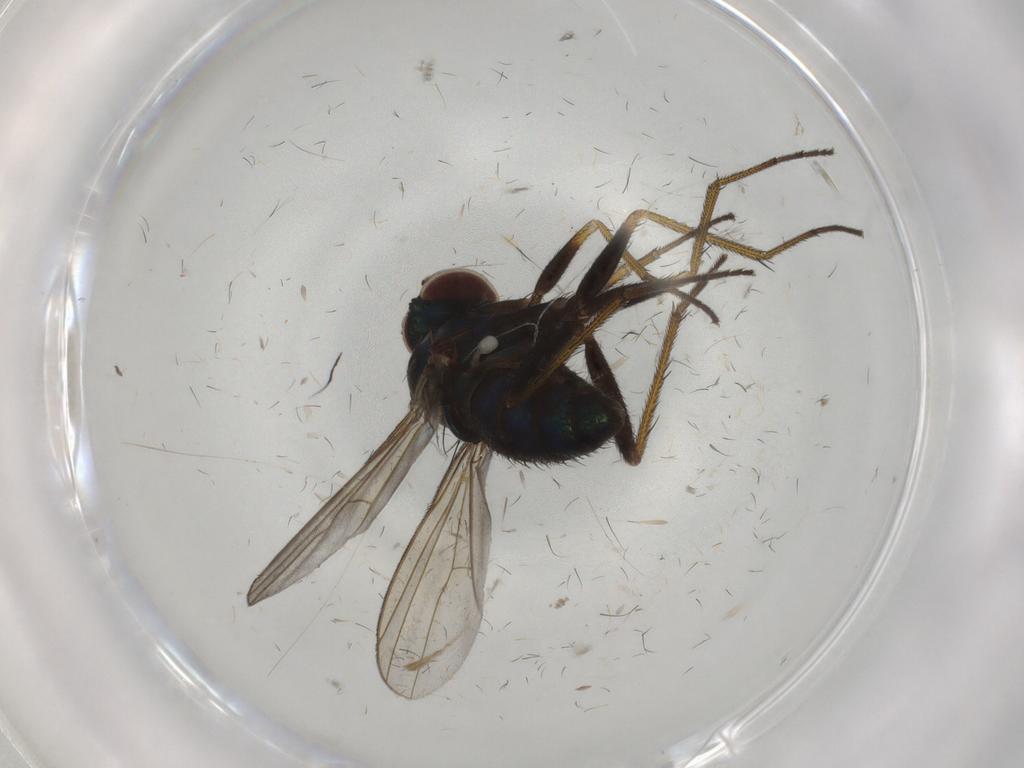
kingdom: Animalia
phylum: Arthropoda
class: Insecta
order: Diptera
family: Dolichopodidae
